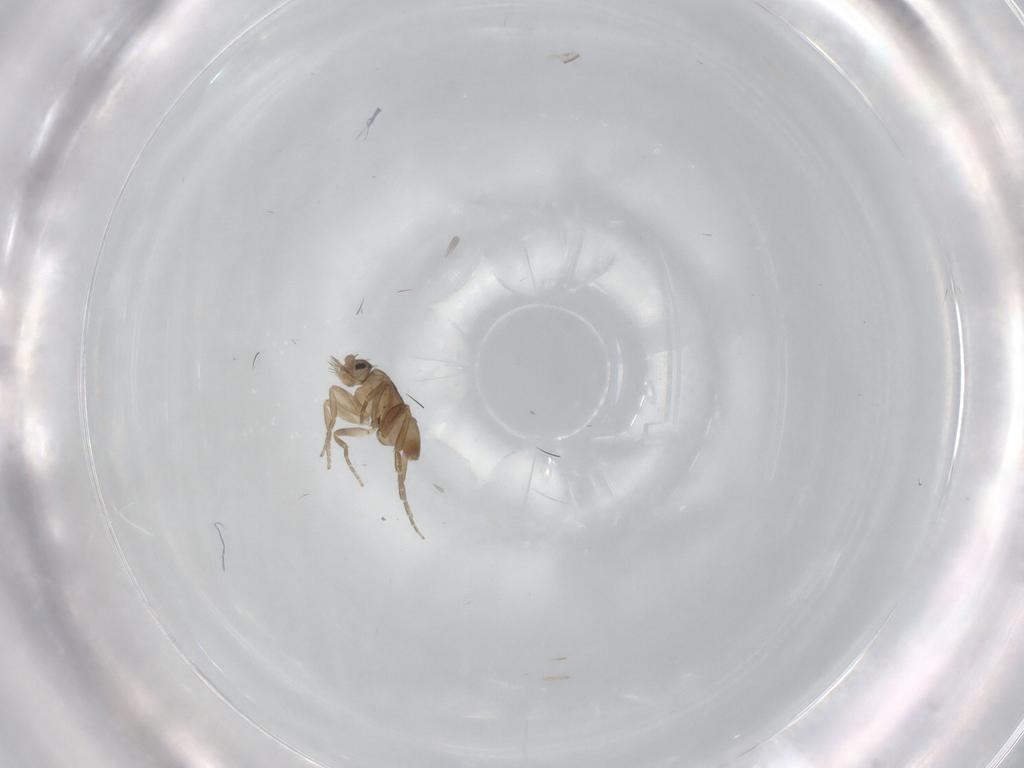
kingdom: Animalia
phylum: Arthropoda
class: Insecta
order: Diptera
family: Phoridae
